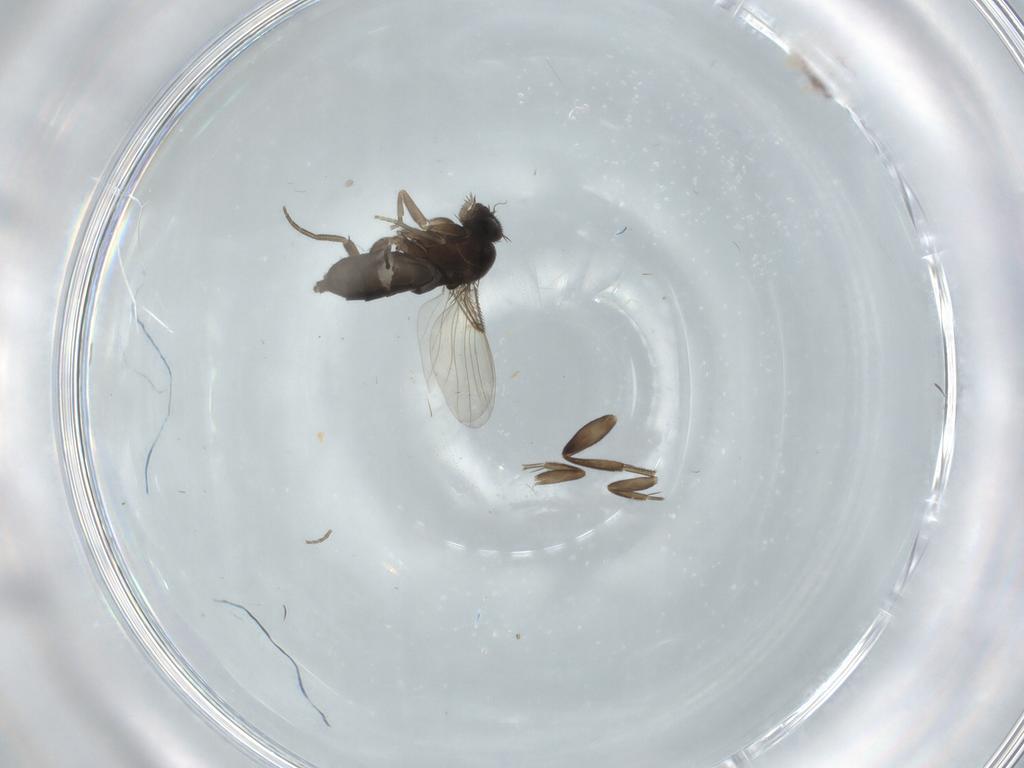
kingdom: Animalia
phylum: Arthropoda
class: Insecta
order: Diptera
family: Phoridae
